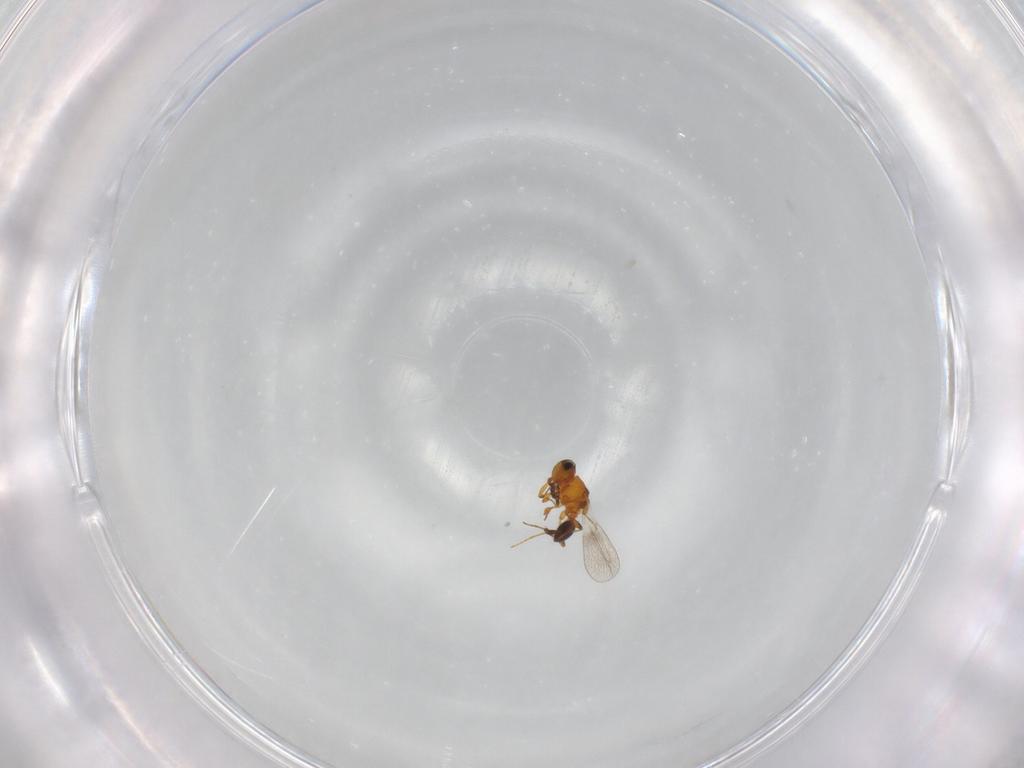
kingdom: Animalia
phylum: Arthropoda
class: Insecta
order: Hymenoptera
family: Platygastridae
